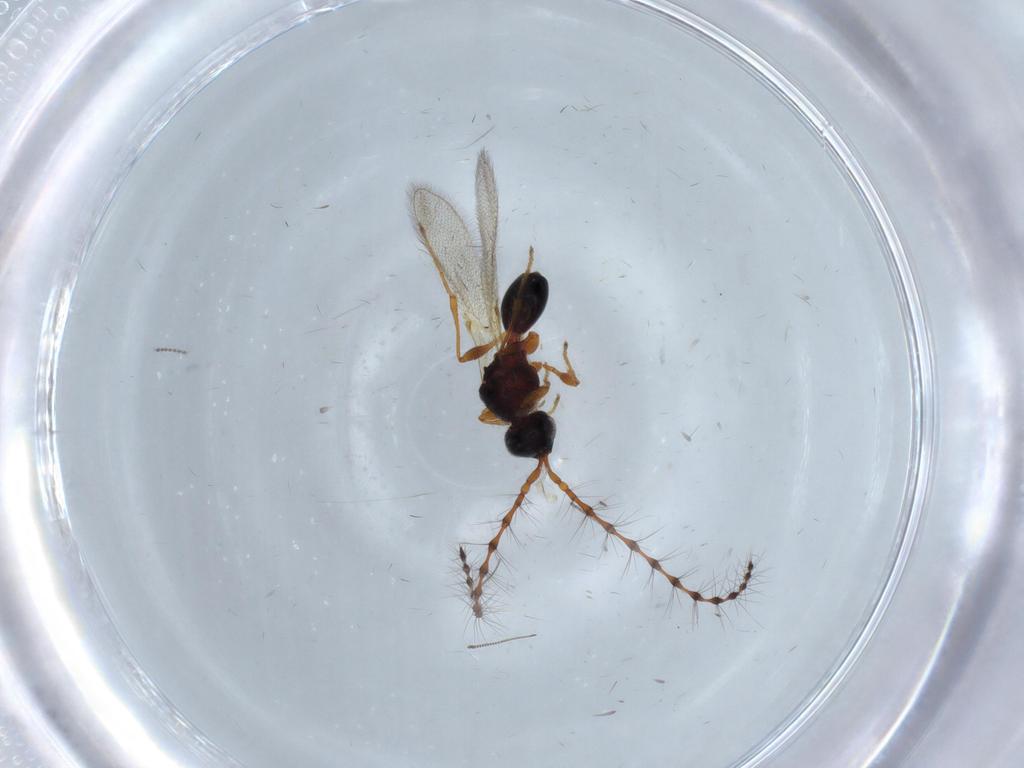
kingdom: Animalia
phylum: Arthropoda
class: Insecta
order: Hymenoptera
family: Diapriidae
